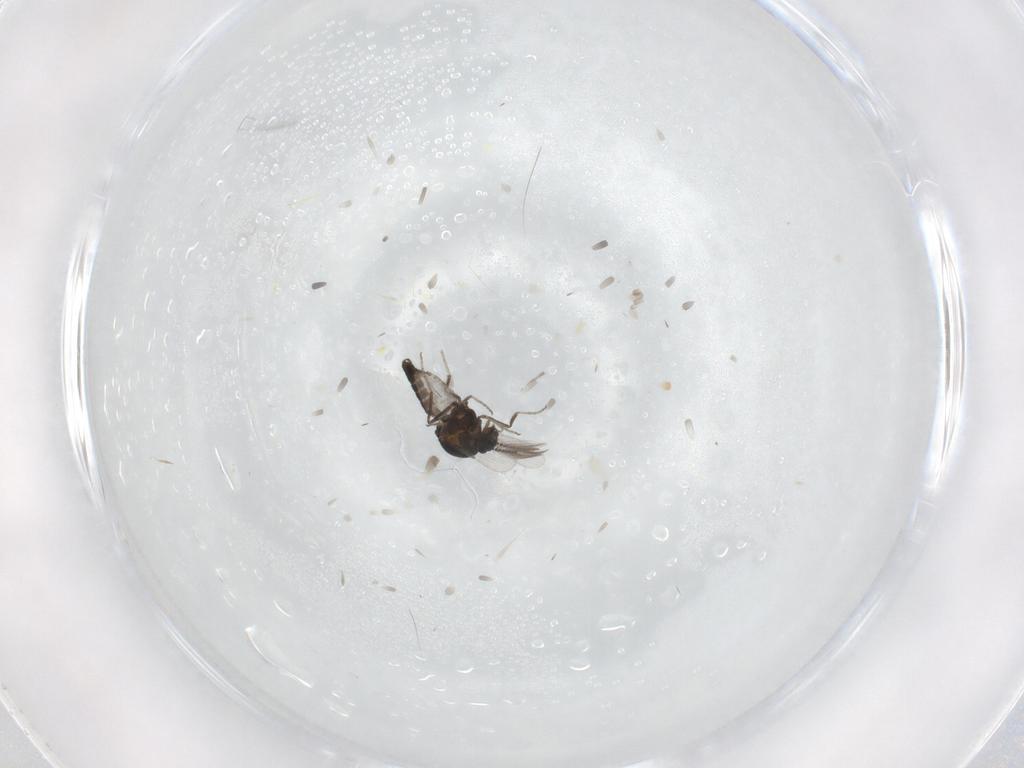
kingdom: Animalia
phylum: Arthropoda
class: Insecta
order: Diptera
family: Ceratopogonidae
